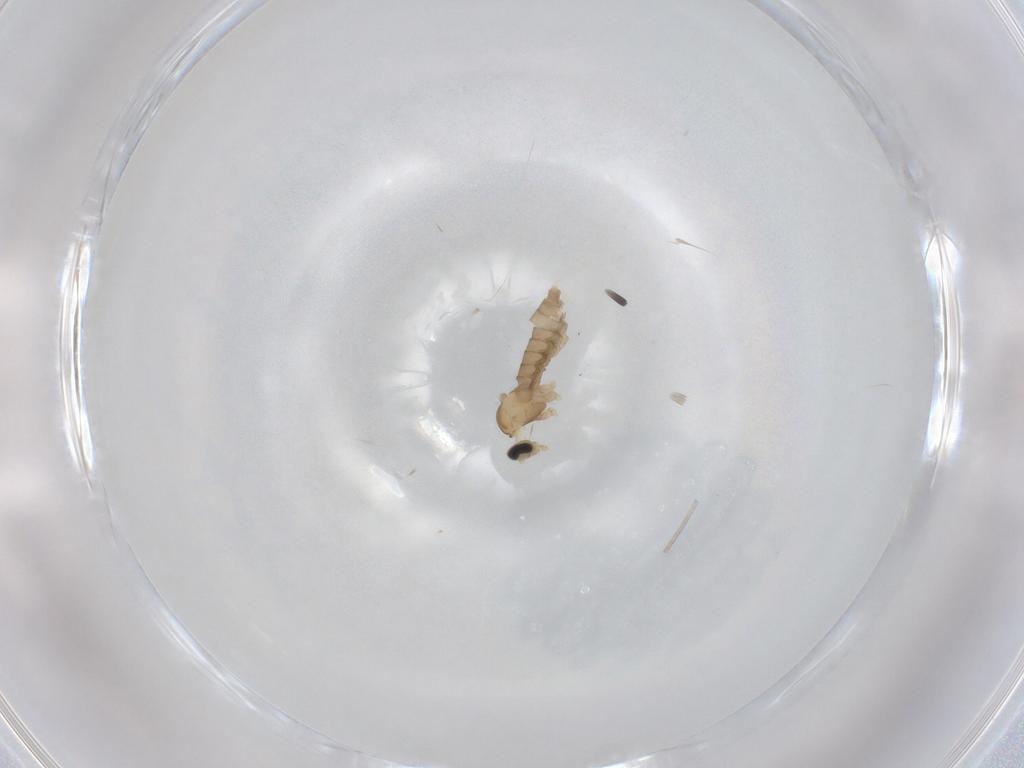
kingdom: Animalia
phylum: Arthropoda
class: Insecta
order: Diptera
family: Cecidomyiidae
